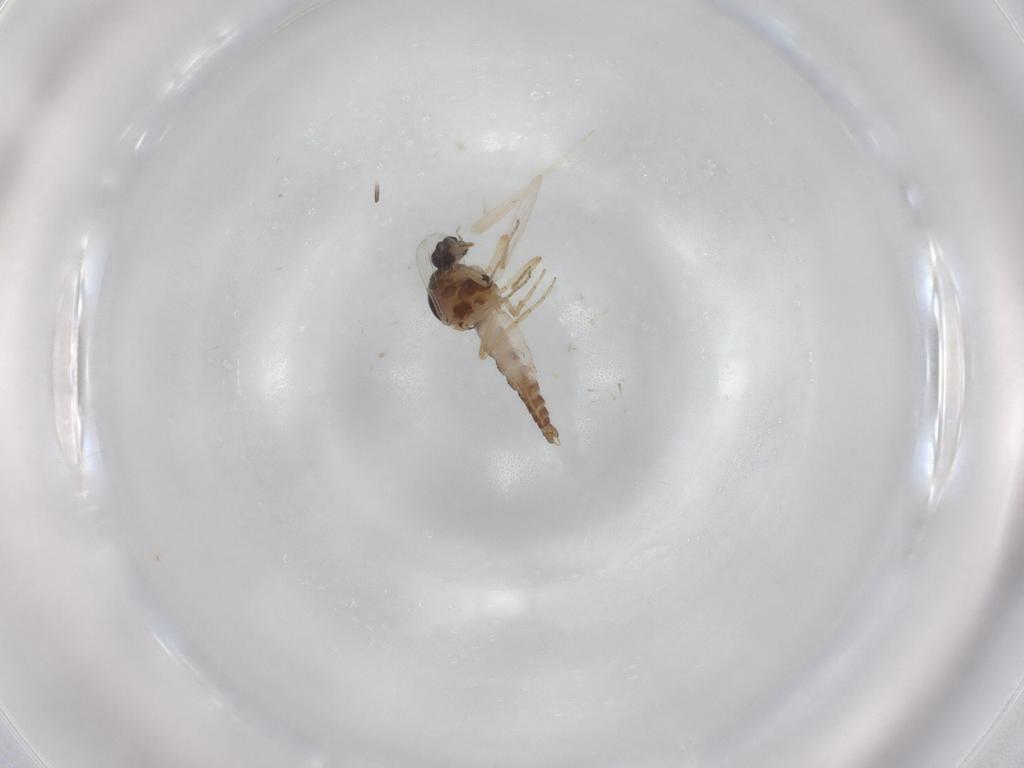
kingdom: Animalia
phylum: Arthropoda
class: Insecta
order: Diptera
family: Ceratopogonidae
